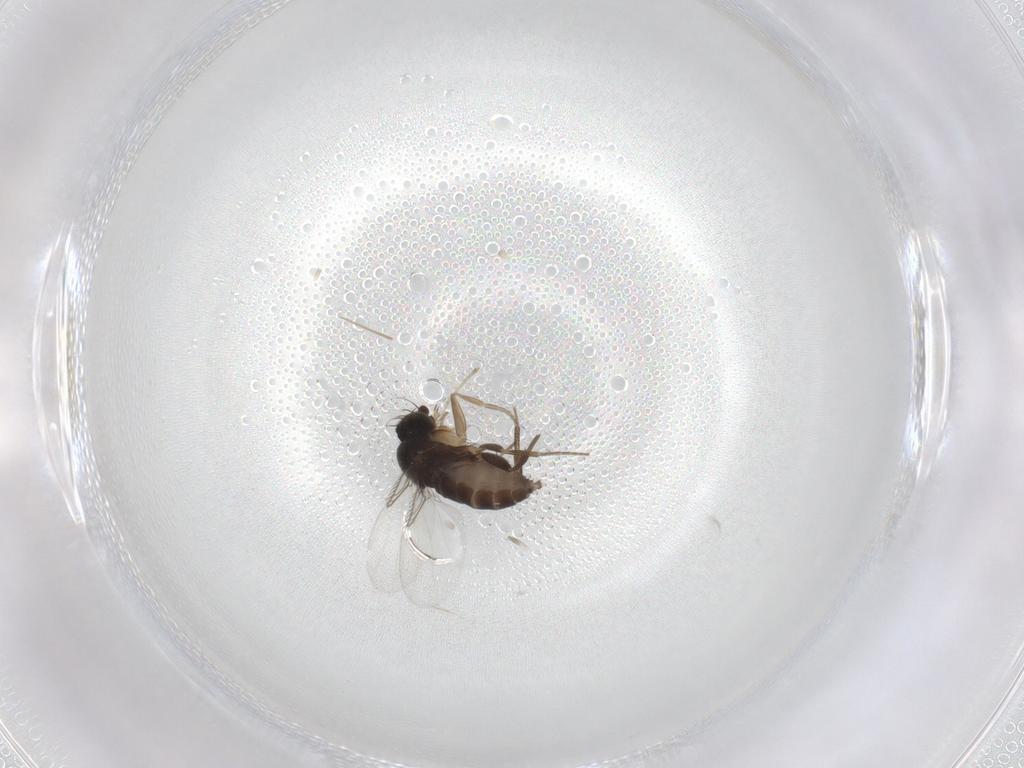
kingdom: Animalia
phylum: Arthropoda
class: Insecta
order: Diptera
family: Phoridae
